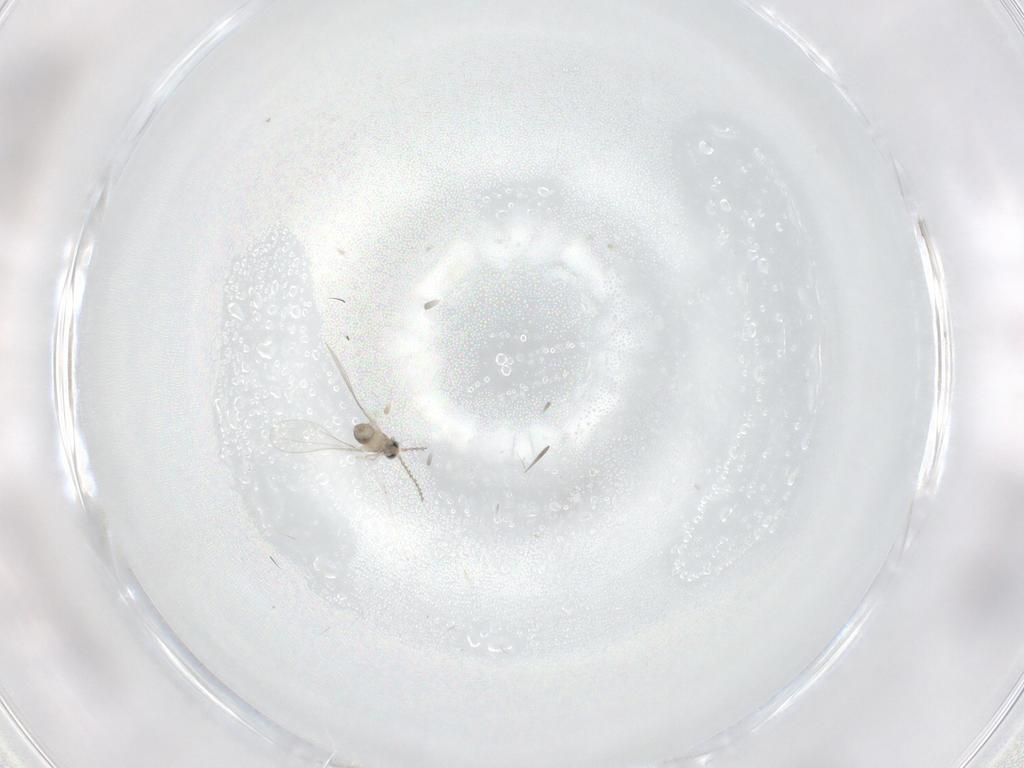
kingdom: Animalia
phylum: Arthropoda
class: Insecta
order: Diptera
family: Cecidomyiidae
